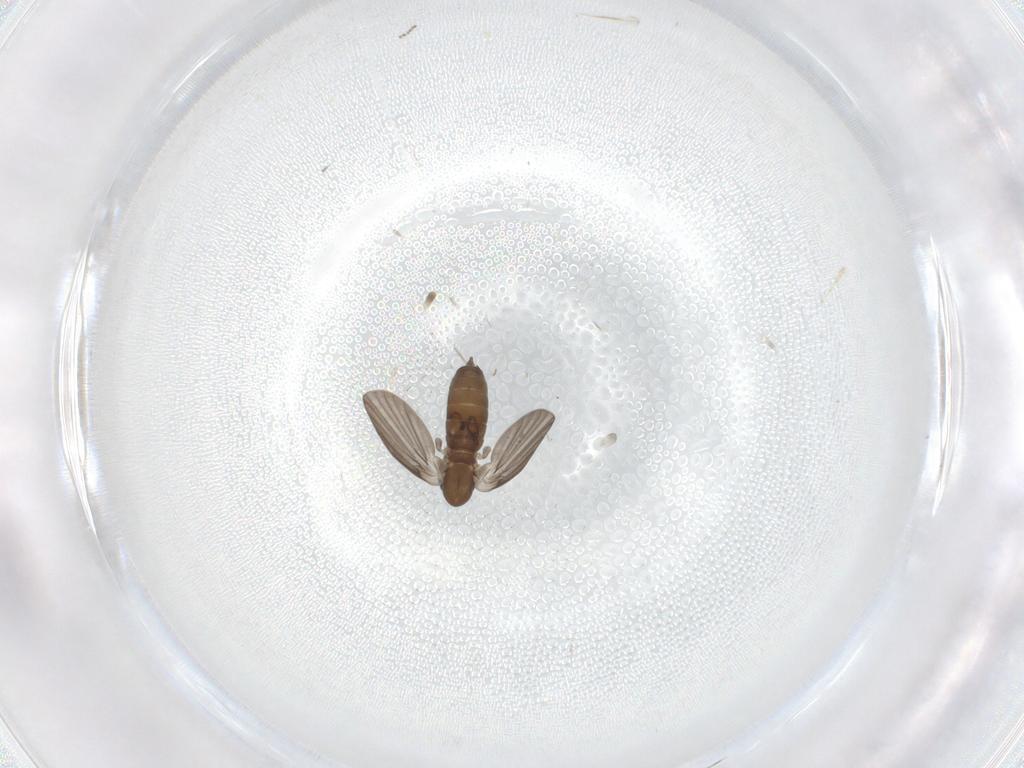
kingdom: Animalia
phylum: Arthropoda
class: Insecta
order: Diptera
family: Psychodidae
